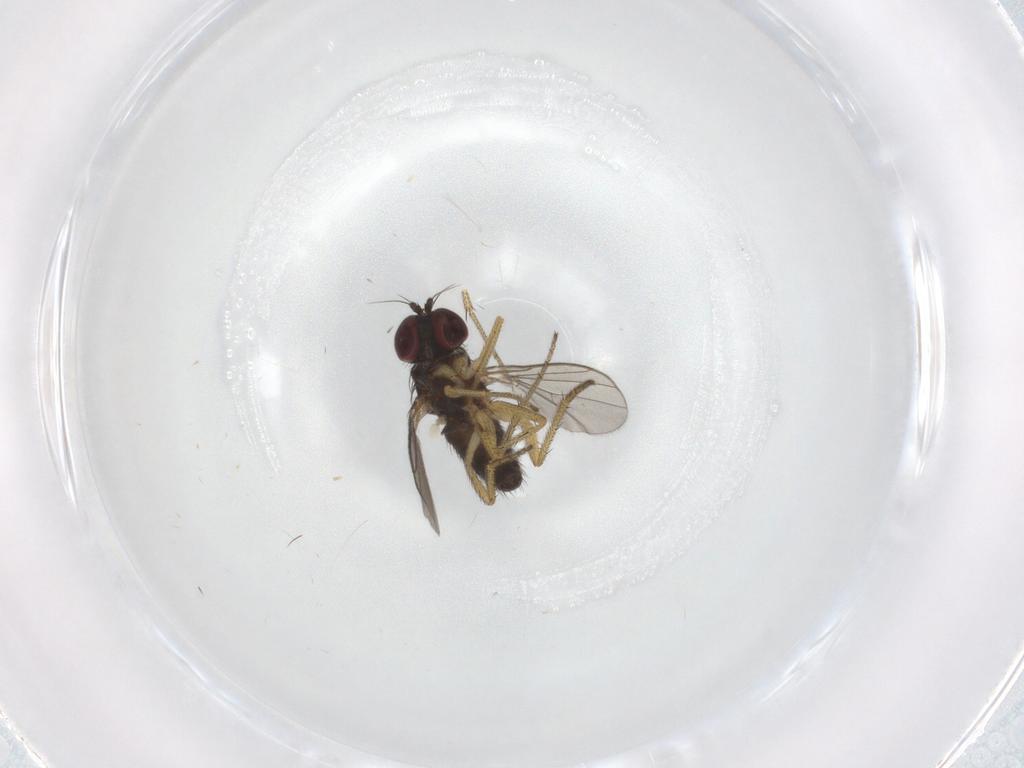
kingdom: Animalia
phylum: Arthropoda
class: Insecta
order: Diptera
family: Dolichopodidae
